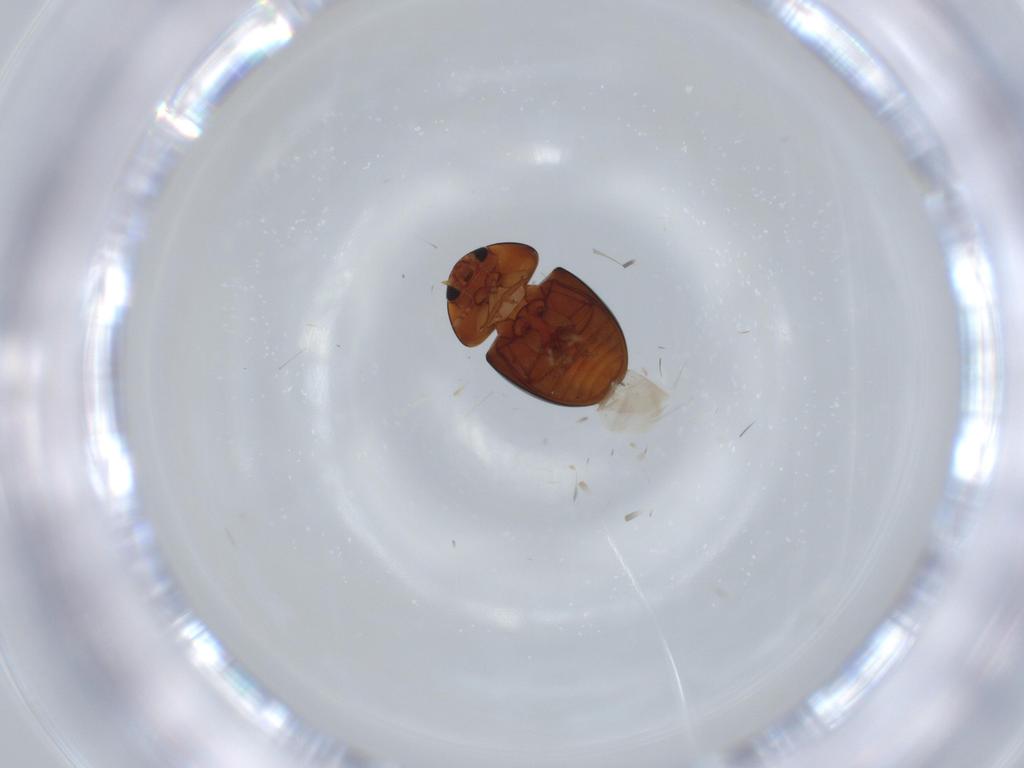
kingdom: Animalia
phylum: Arthropoda
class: Insecta
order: Coleoptera
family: Phalacridae
